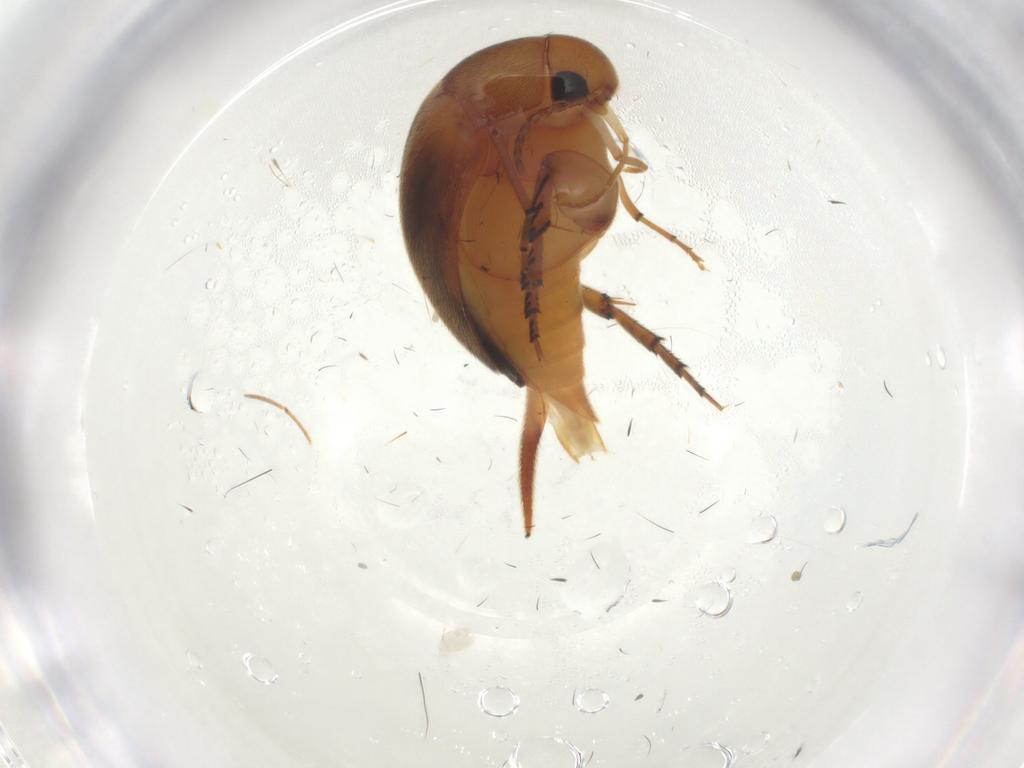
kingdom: Animalia
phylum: Arthropoda
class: Insecta
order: Coleoptera
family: Mordellidae
